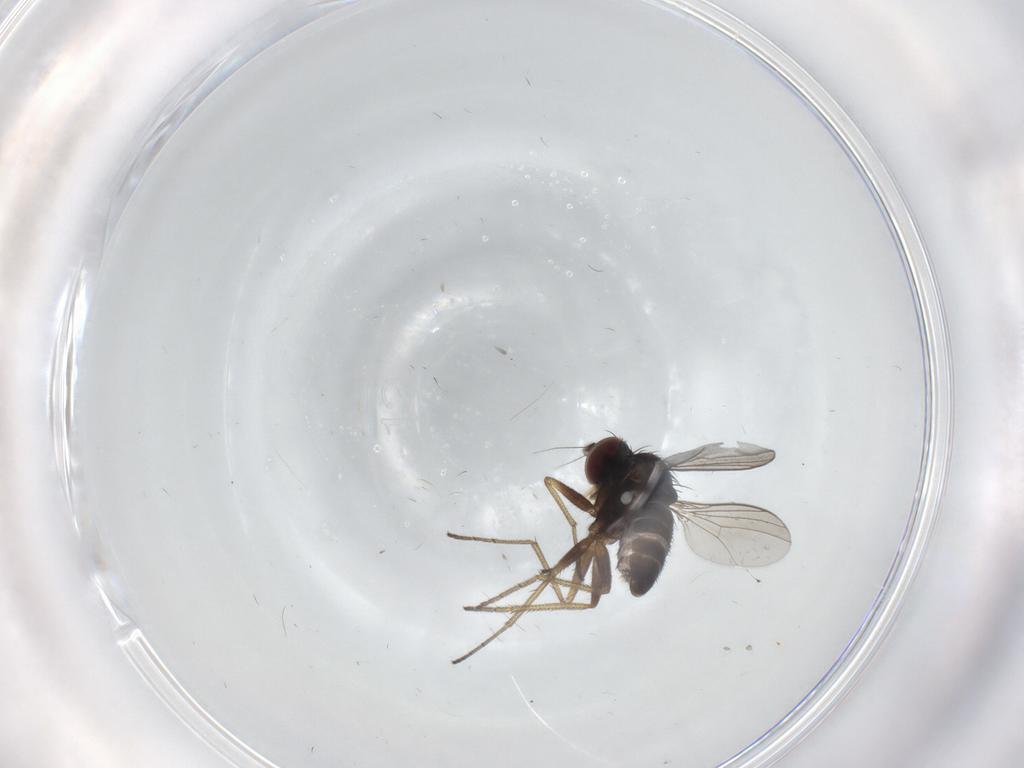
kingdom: Animalia
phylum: Arthropoda
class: Insecta
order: Diptera
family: Dolichopodidae
